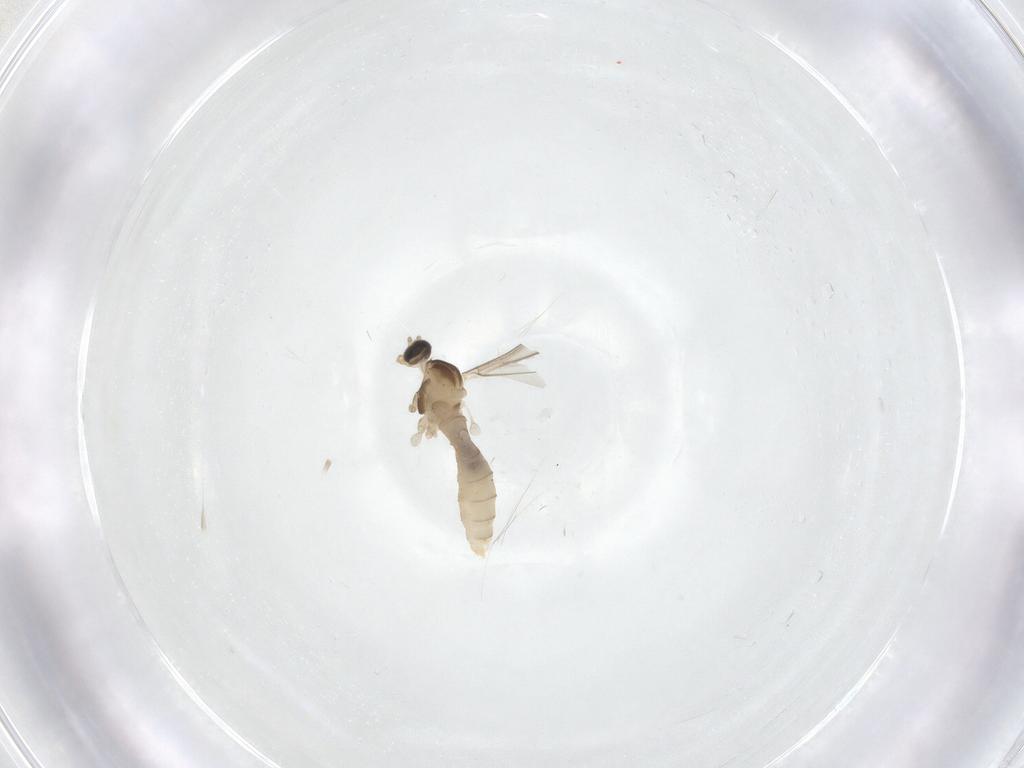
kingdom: Animalia
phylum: Arthropoda
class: Insecta
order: Diptera
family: Cecidomyiidae
